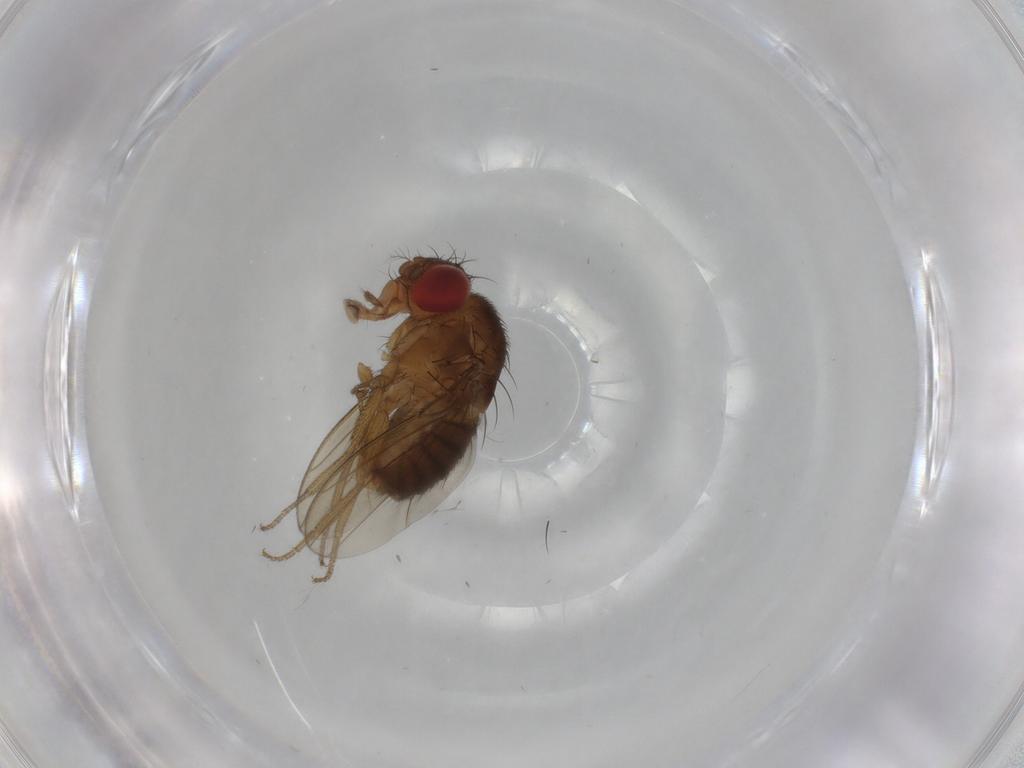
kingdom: Animalia
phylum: Arthropoda
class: Insecta
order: Diptera
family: Drosophilidae
